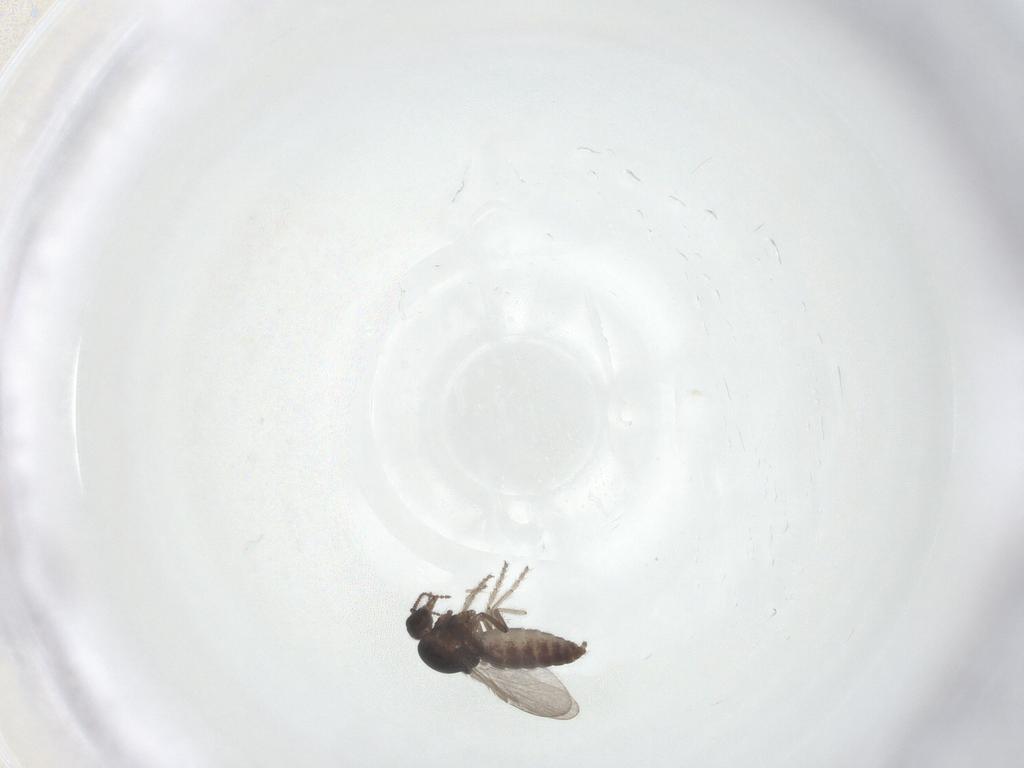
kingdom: Animalia
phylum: Arthropoda
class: Insecta
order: Diptera
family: Ceratopogonidae
